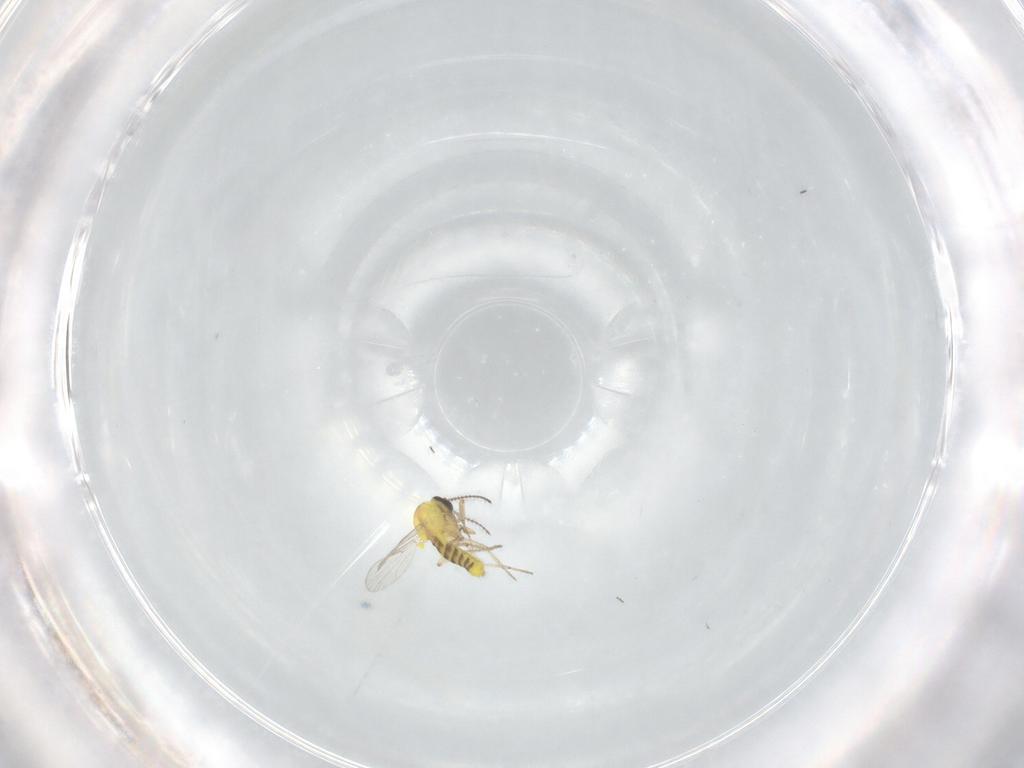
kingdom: Animalia
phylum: Arthropoda
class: Insecta
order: Diptera
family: Ceratopogonidae
